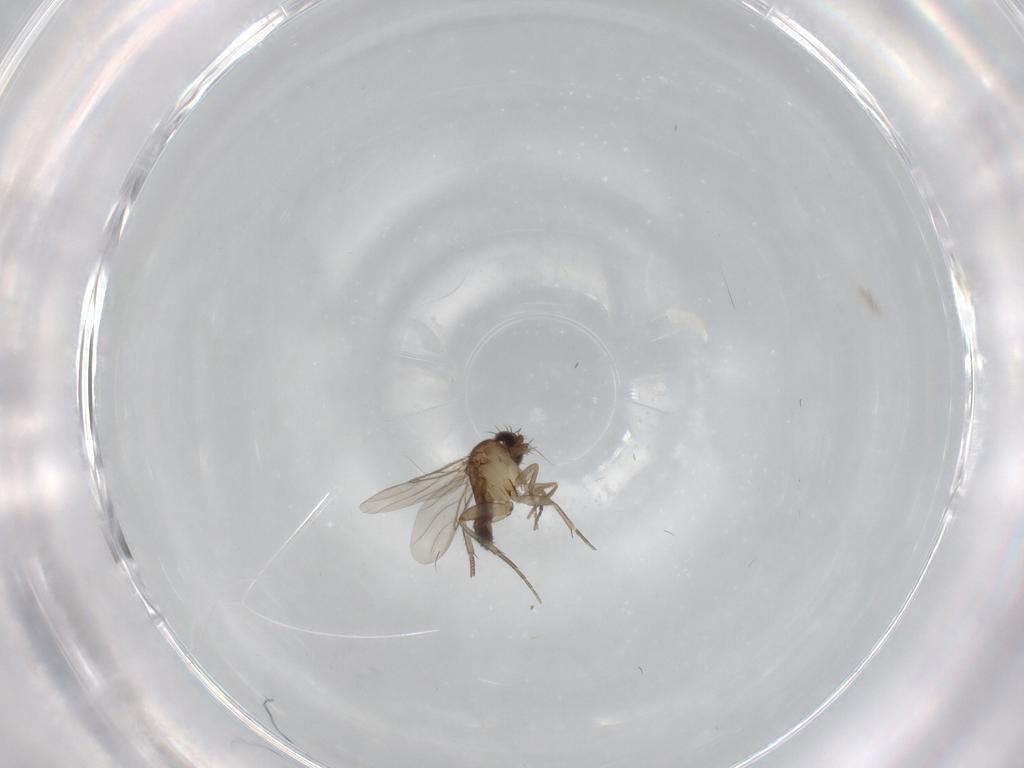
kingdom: Animalia
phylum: Arthropoda
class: Insecta
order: Diptera
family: Phoridae
